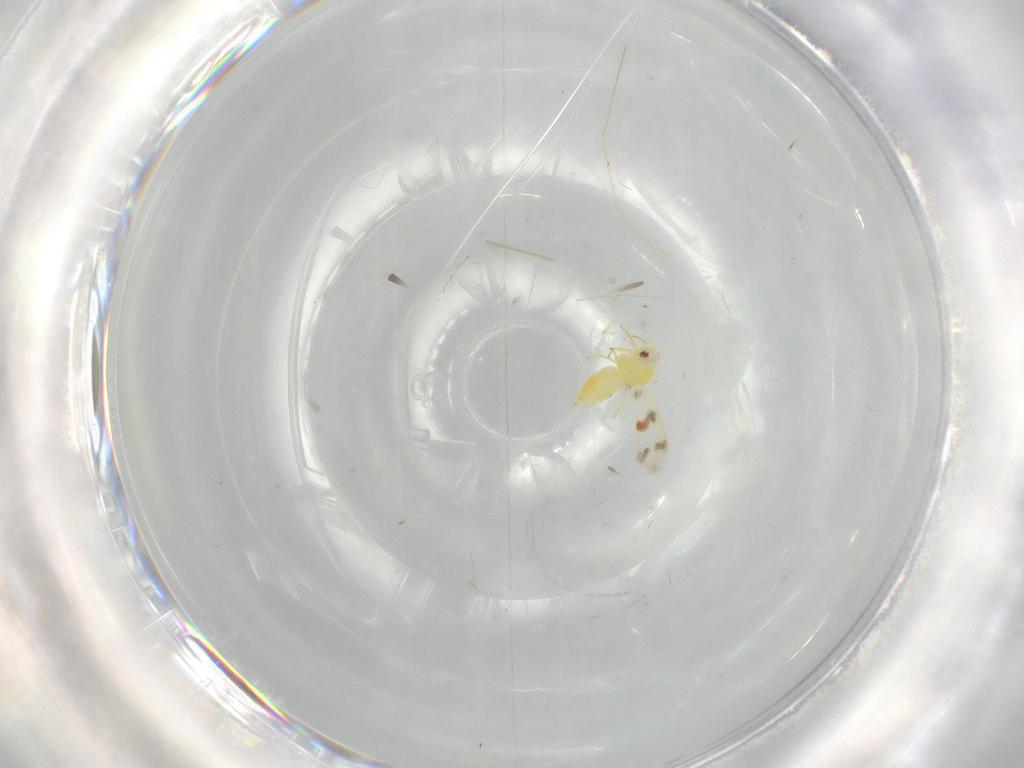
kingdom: Animalia
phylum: Arthropoda
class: Insecta
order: Hemiptera
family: Aleyrodidae
